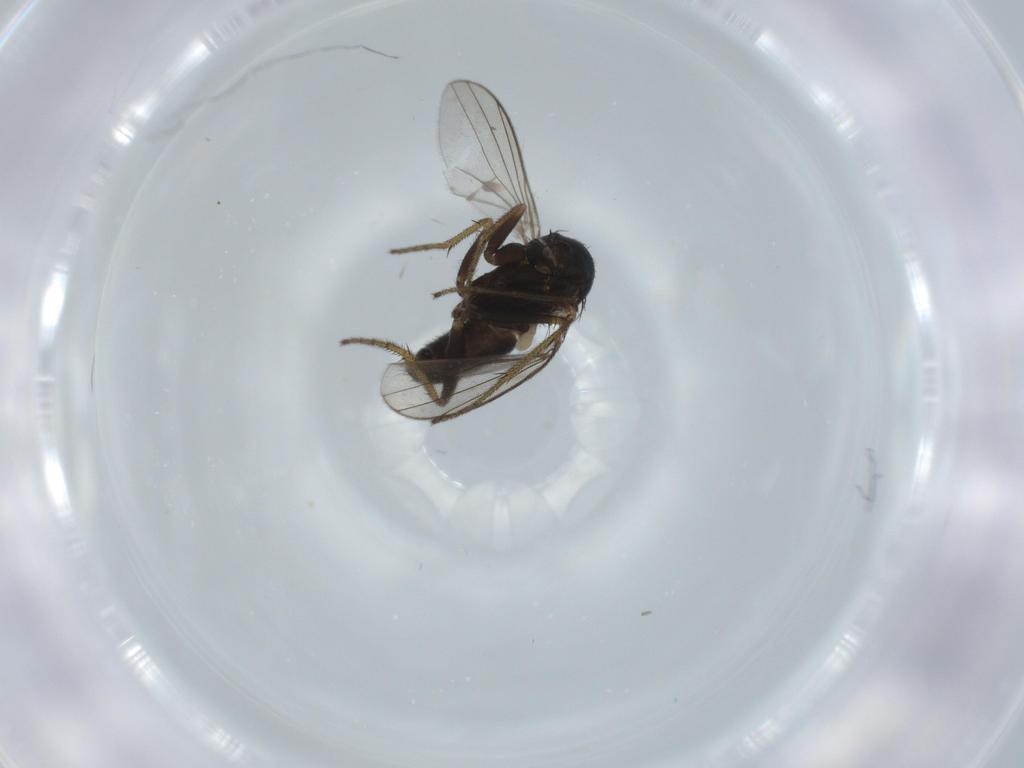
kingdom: Animalia
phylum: Arthropoda
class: Insecta
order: Diptera
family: Cecidomyiidae
